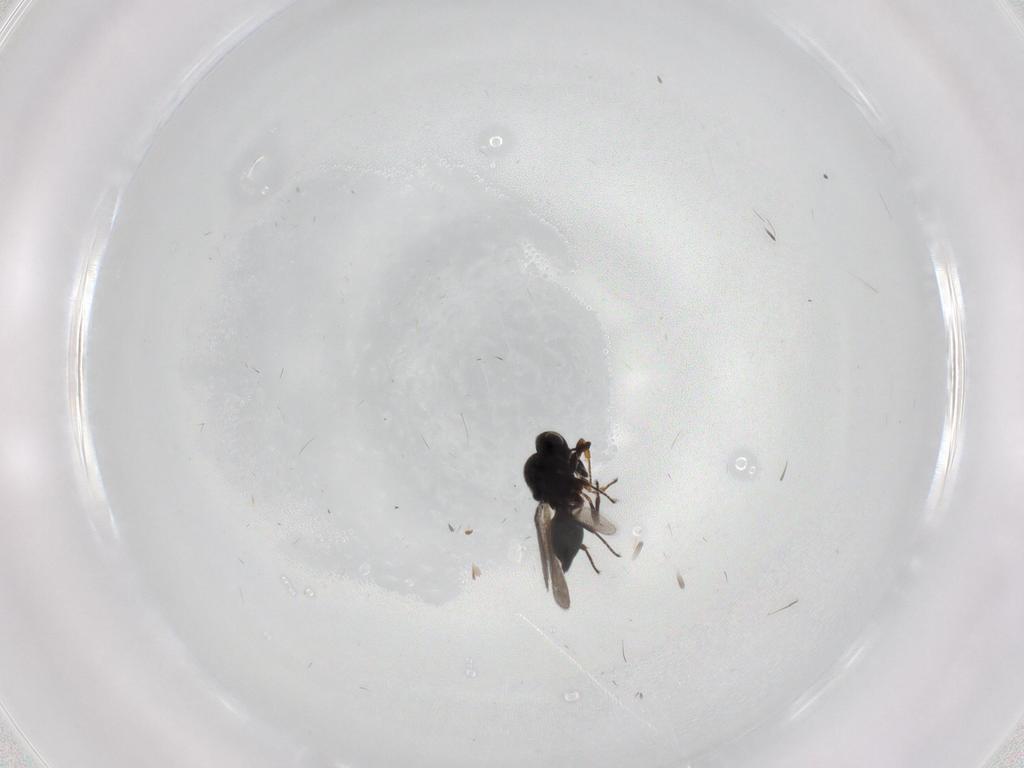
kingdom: Animalia
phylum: Arthropoda
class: Insecta
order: Hymenoptera
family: Platygastridae
